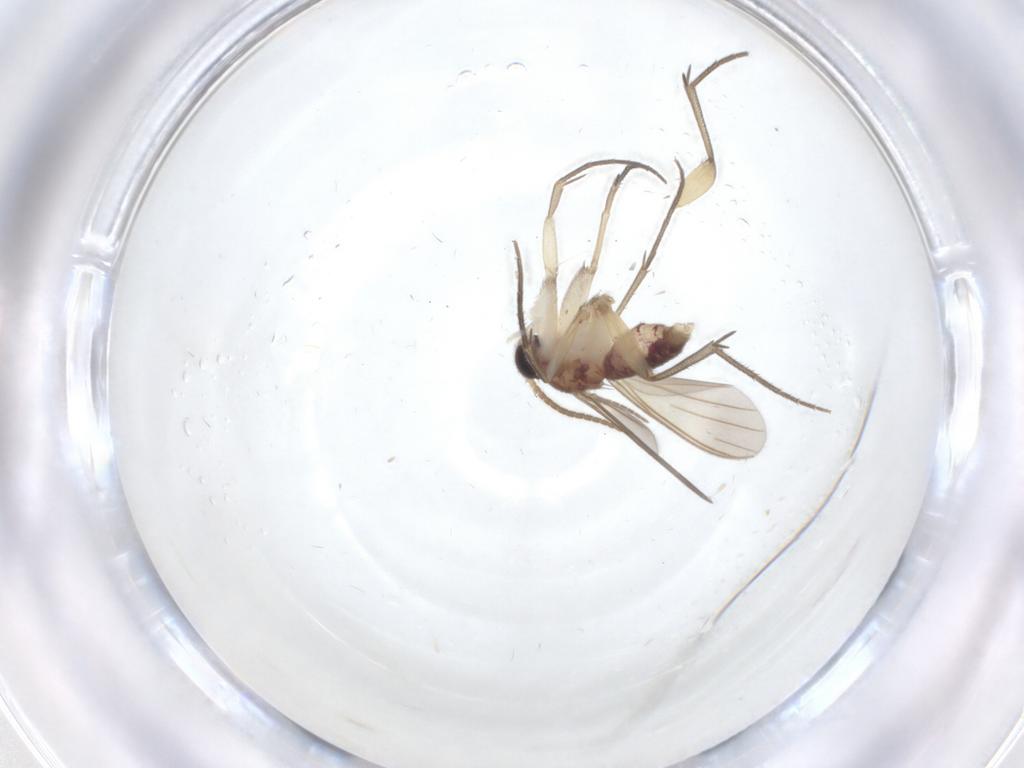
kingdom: Animalia
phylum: Arthropoda
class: Insecta
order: Diptera
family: Mycetophilidae
